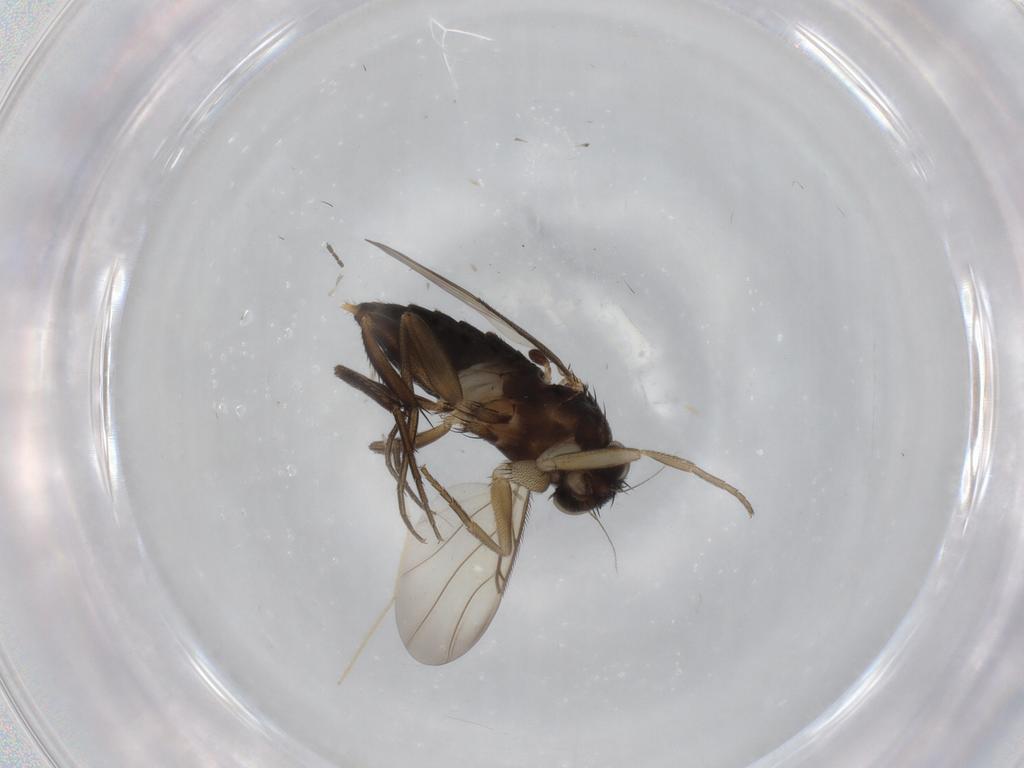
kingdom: Animalia
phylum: Arthropoda
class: Insecta
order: Diptera
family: Phoridae
